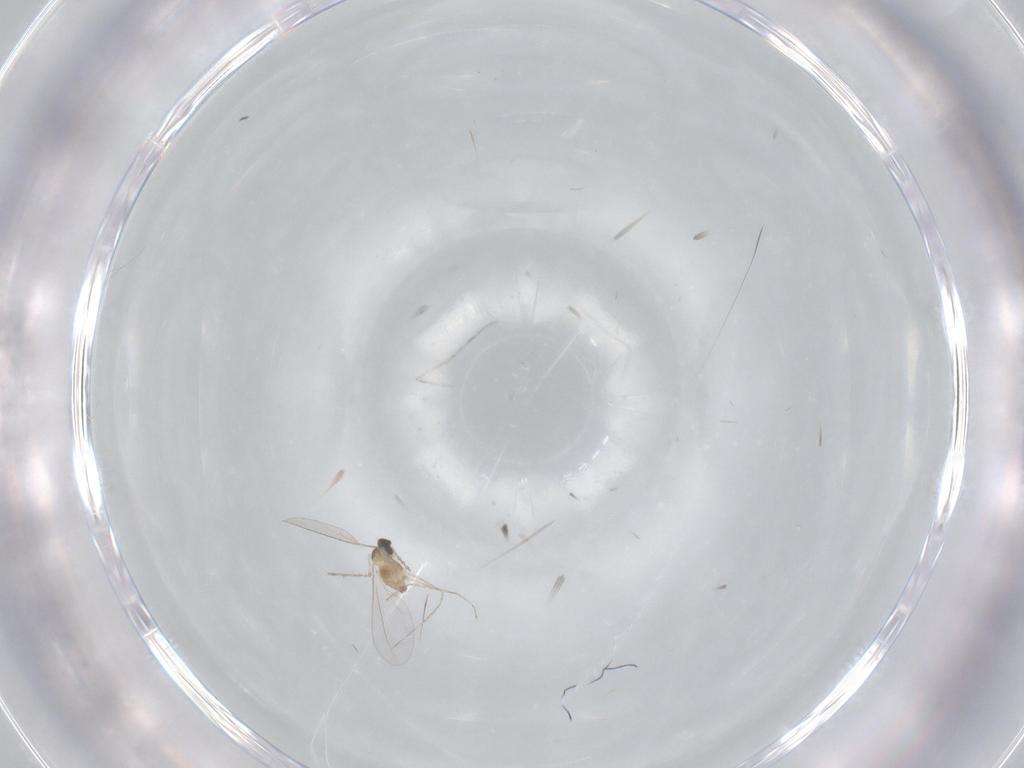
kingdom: Animalia
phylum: Arthropoda
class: Insecta
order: Diptera
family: Cecidomyiidae
